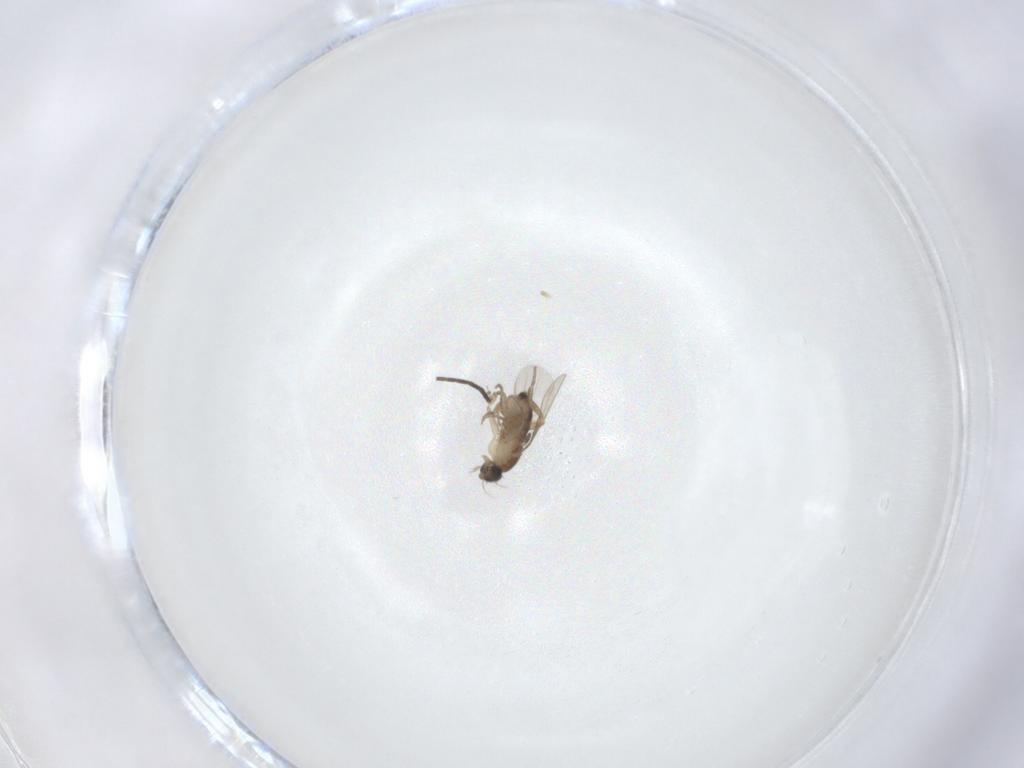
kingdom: Animalia
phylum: Arthropoda
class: Insecta
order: Diptera
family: Phoridae
